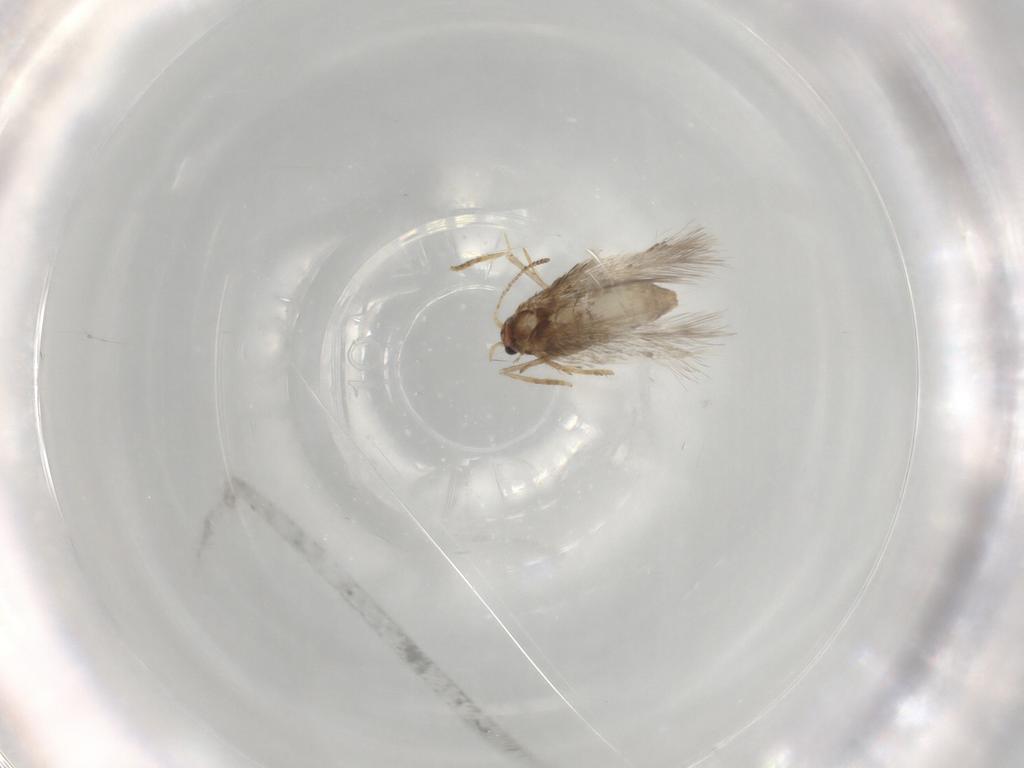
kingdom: Animalia
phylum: Arthropoda
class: Insecta
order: Lepidoptera
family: Nepticulidae
